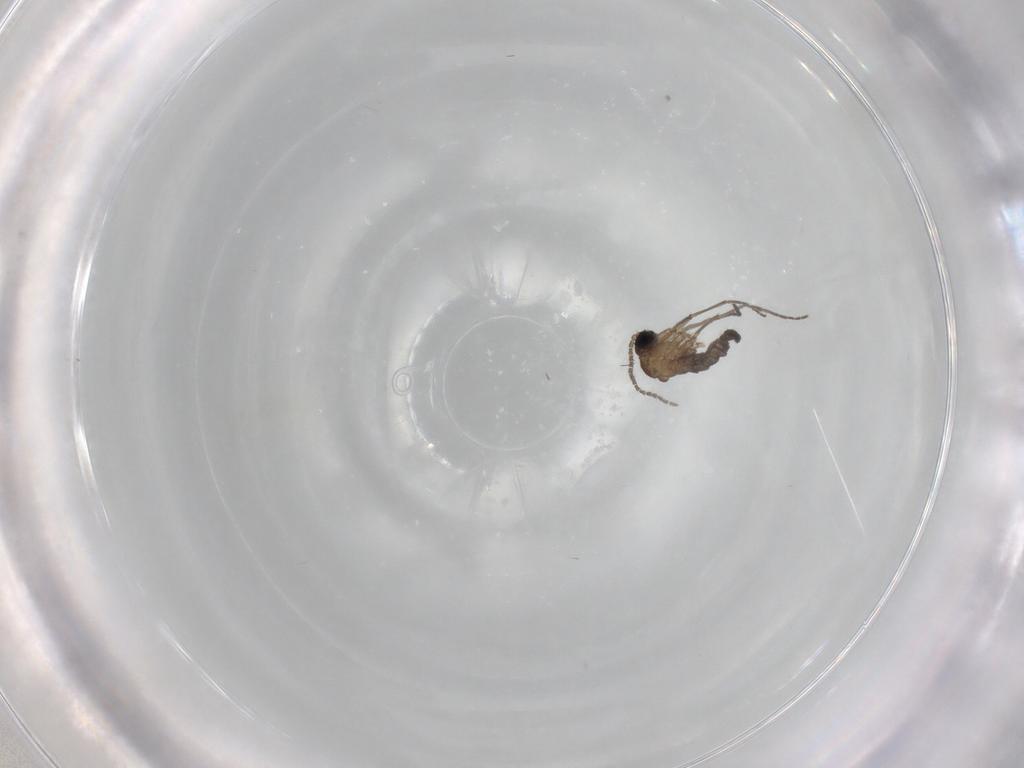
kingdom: Animalia
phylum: Arthropoda
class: Insecta
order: Diptera
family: Sciaridae
